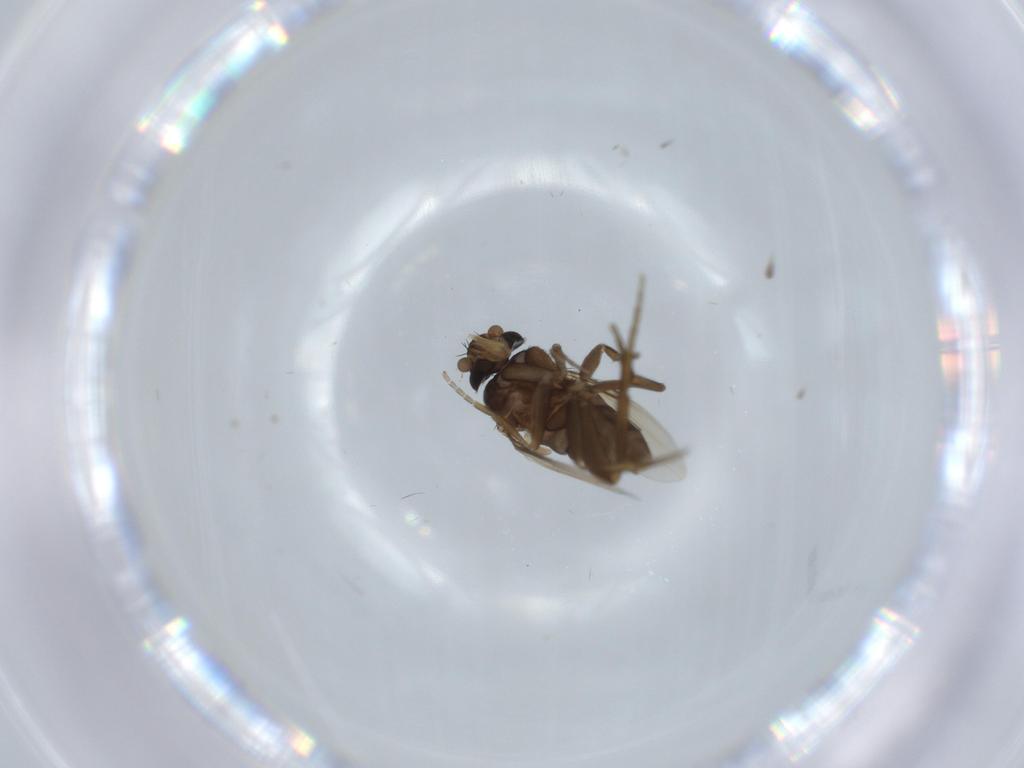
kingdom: Animalia
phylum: Arthropoda
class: Insecta
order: Diptera
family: Phoridae
